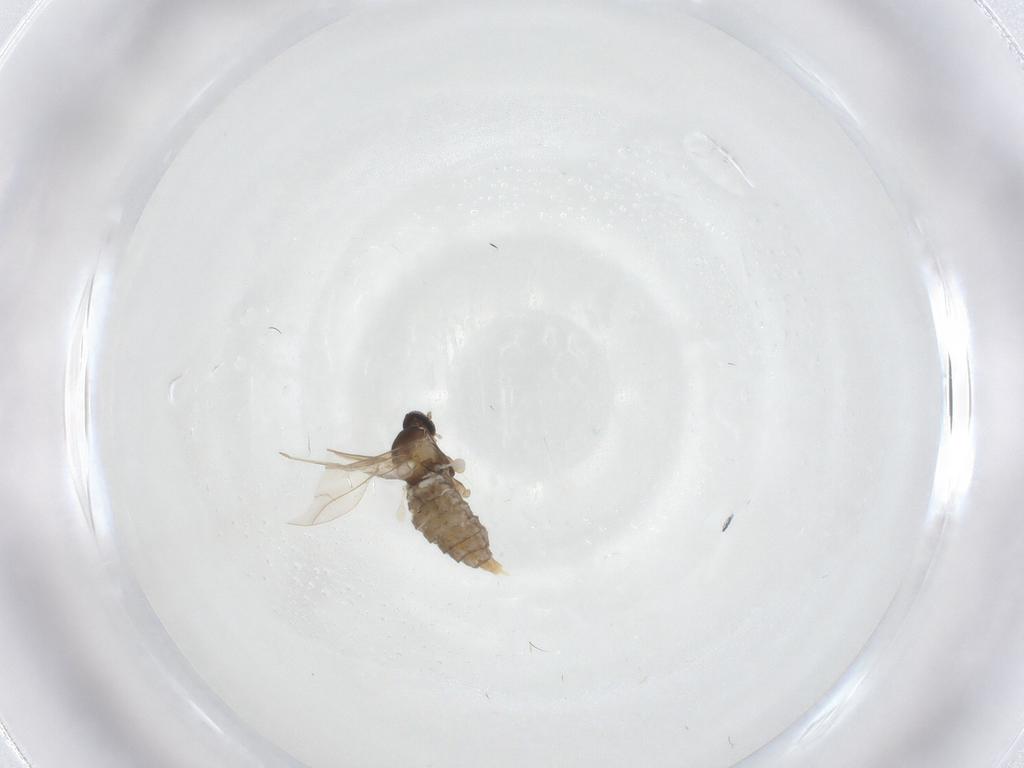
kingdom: Animalia
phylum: Arthropoda
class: Insecta
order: Diptera
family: Cecidomyiidae
